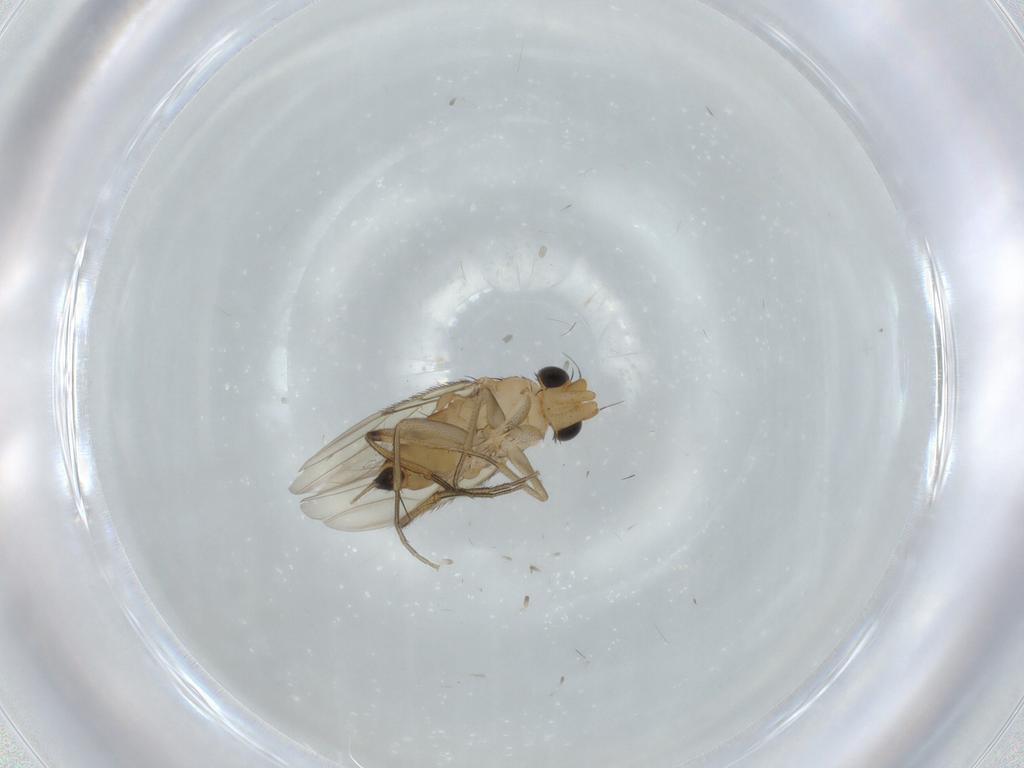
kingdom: Animalia
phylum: Arthropoda
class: Insecta
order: Diptera
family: Phoridae
